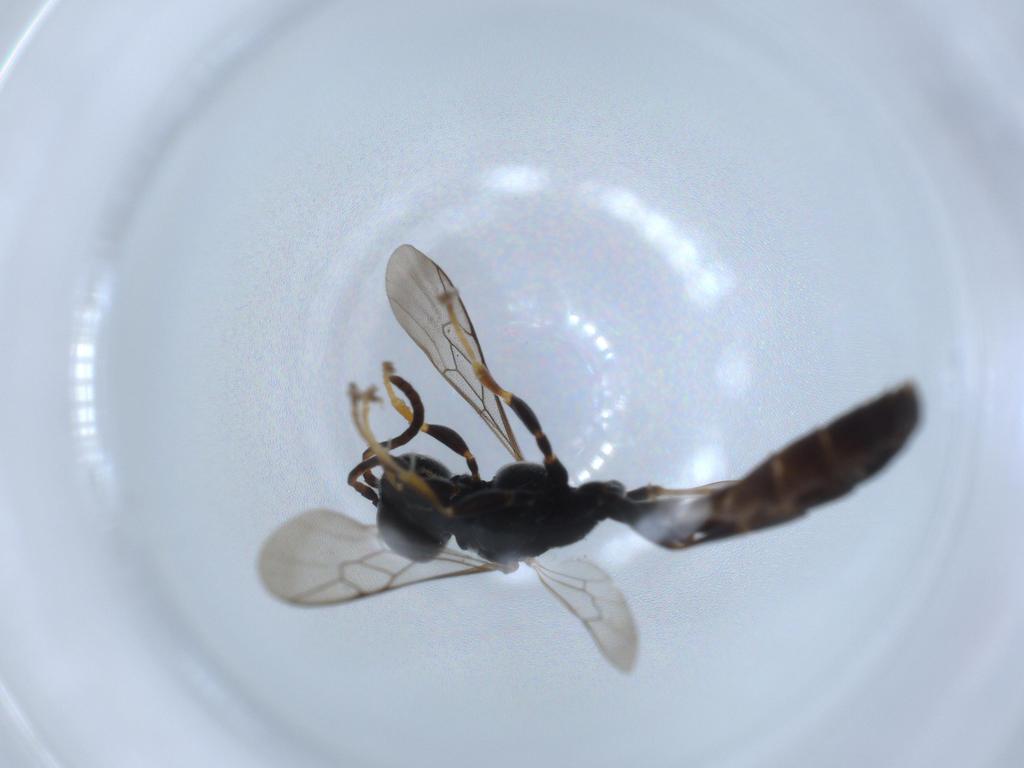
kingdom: Animalia
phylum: Arthropoda
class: Insecta
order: Hymenoptera
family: Crabronidae
